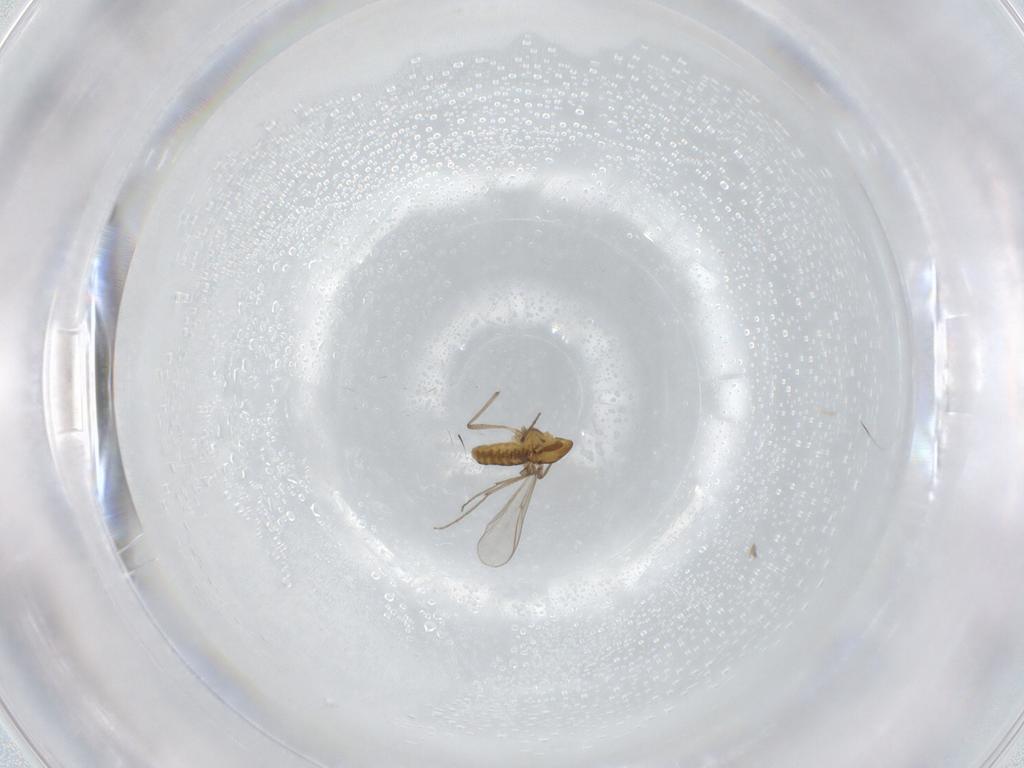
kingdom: Animalia
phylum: Arthropoda
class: Insecta
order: Diptera
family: Chironomidae
